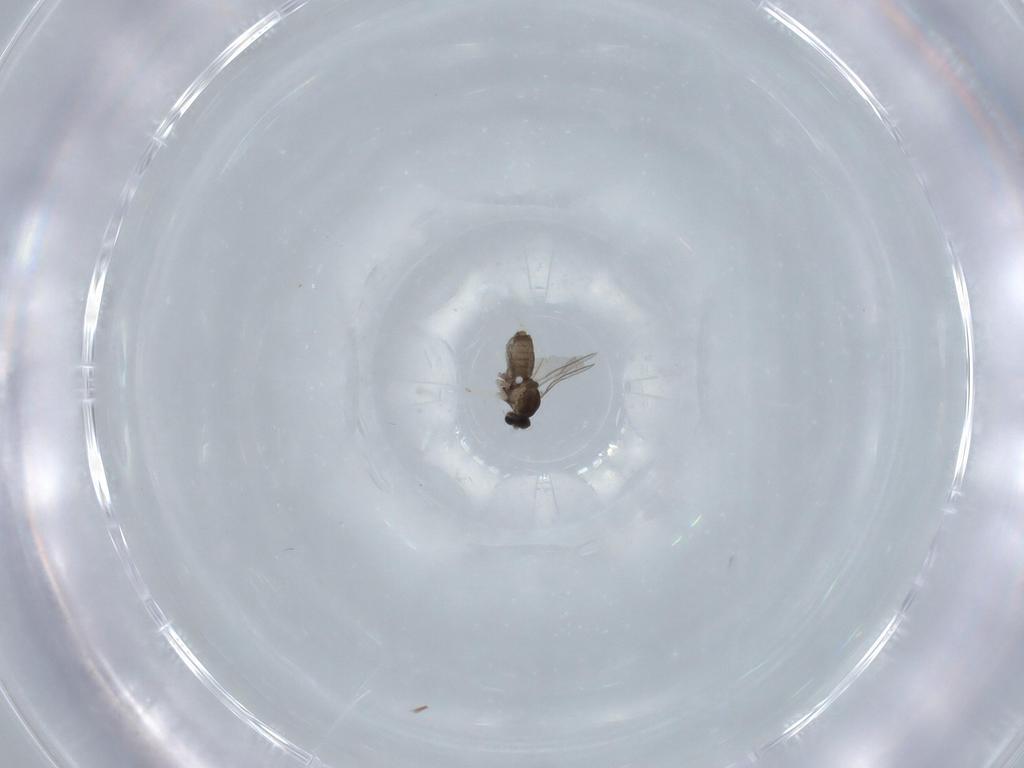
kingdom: Animalia
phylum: Arthropoda
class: Insecta
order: Diptera
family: Cecidomyiidae
